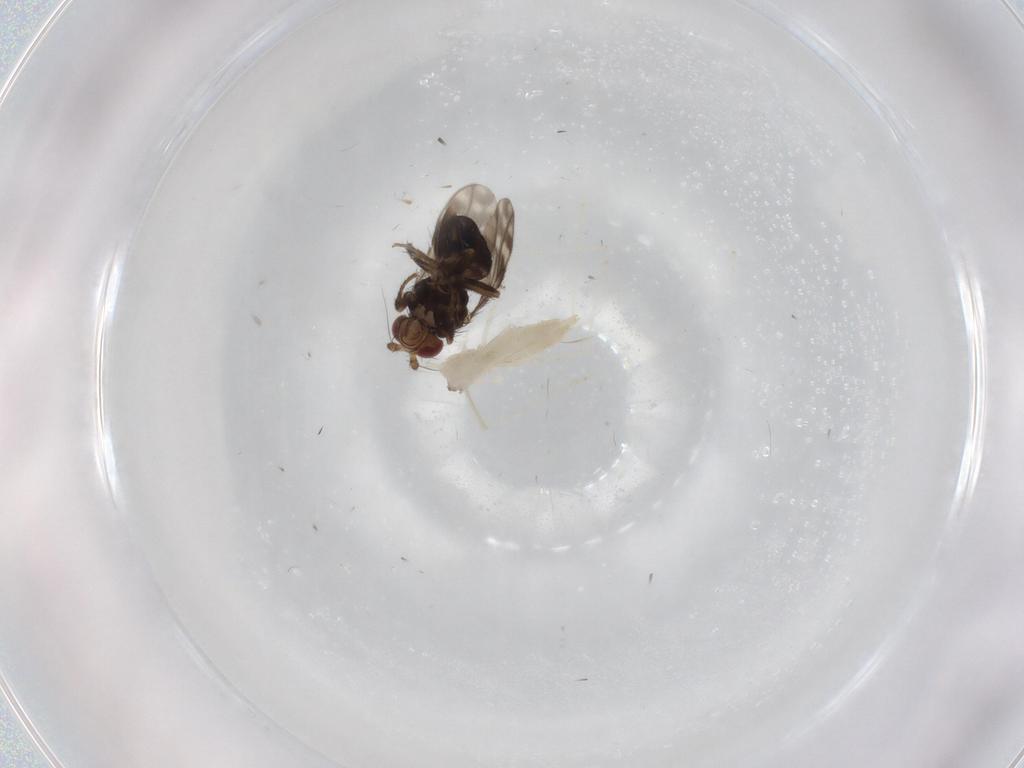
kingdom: Animalia
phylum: Arthropoda
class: Insecta
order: Diptera
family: Sphaeroceridae
